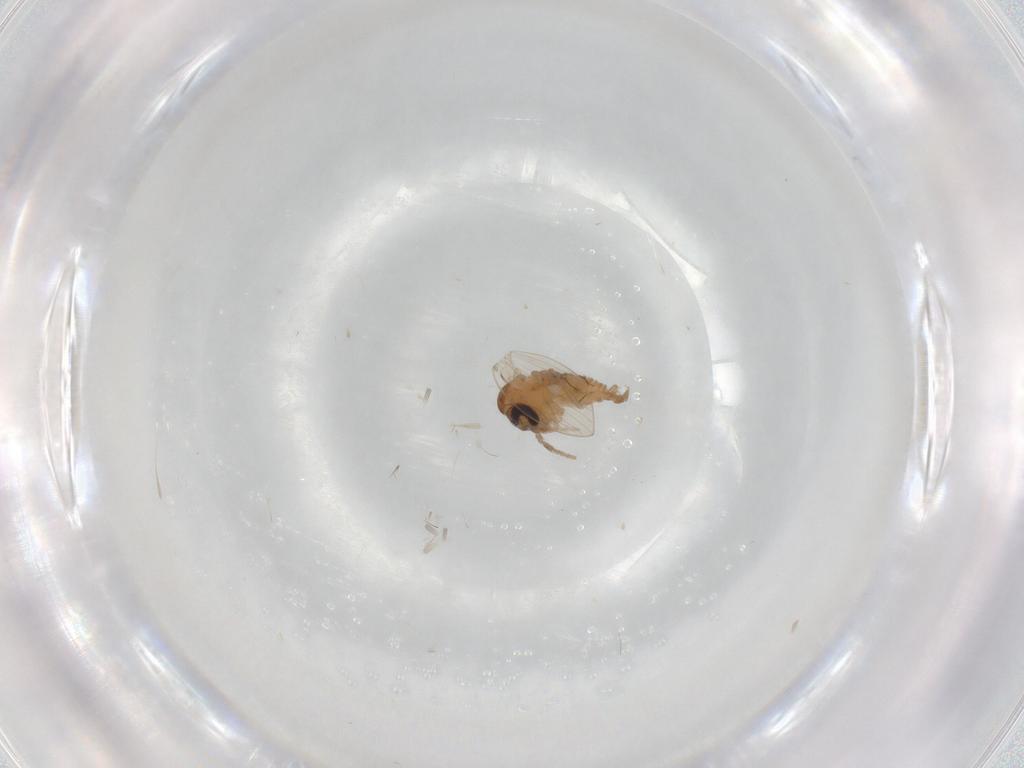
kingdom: Animalia
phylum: Arthropoda
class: Insecta
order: Diptera
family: Psychodidae
